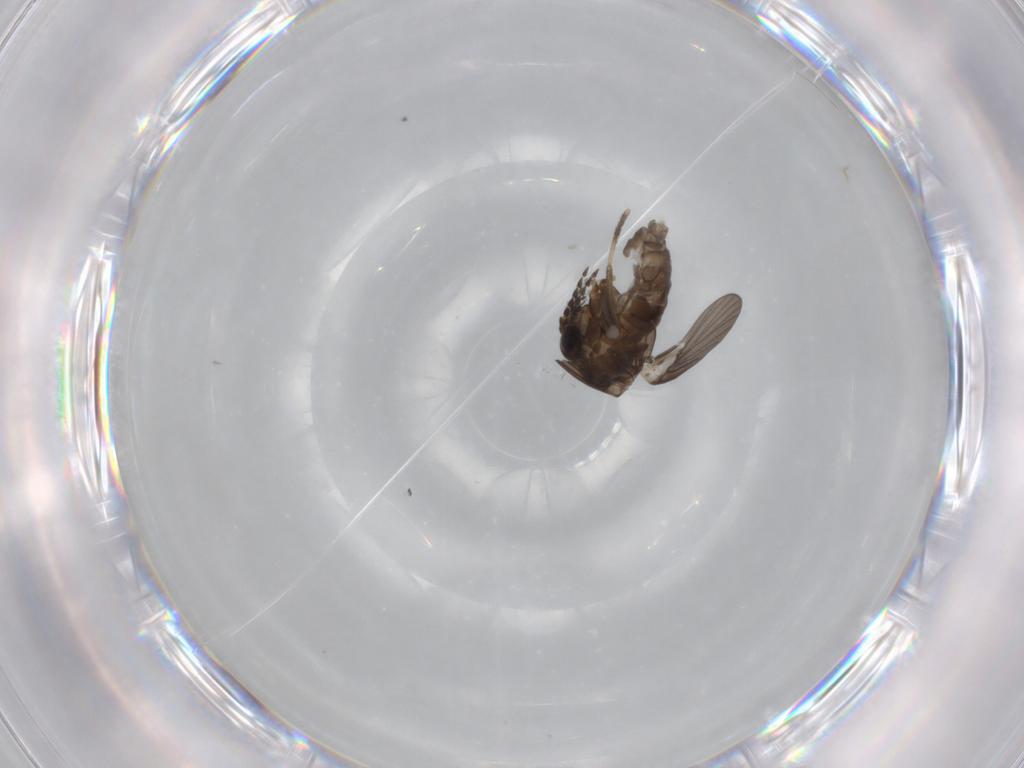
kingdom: Animalia
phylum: Arthropoda
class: Insecta
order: Diptera
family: Psychodidae
